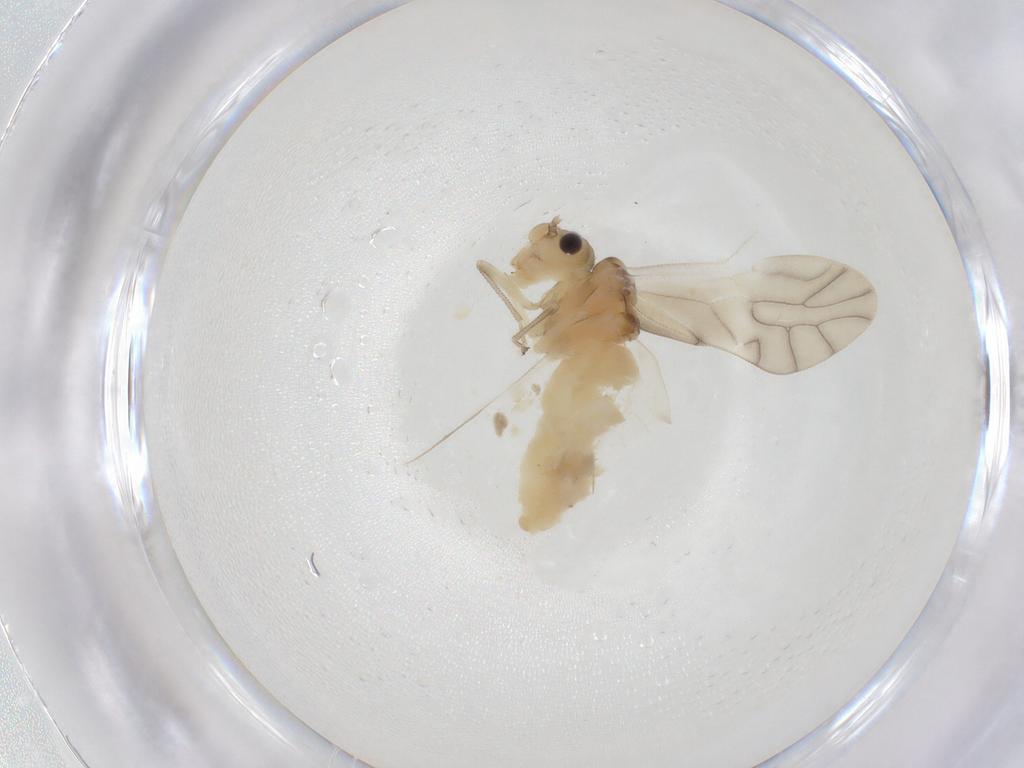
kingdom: Animalia
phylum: Arthropoda
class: Insecta
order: Psocodea
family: Caeciliusidae
